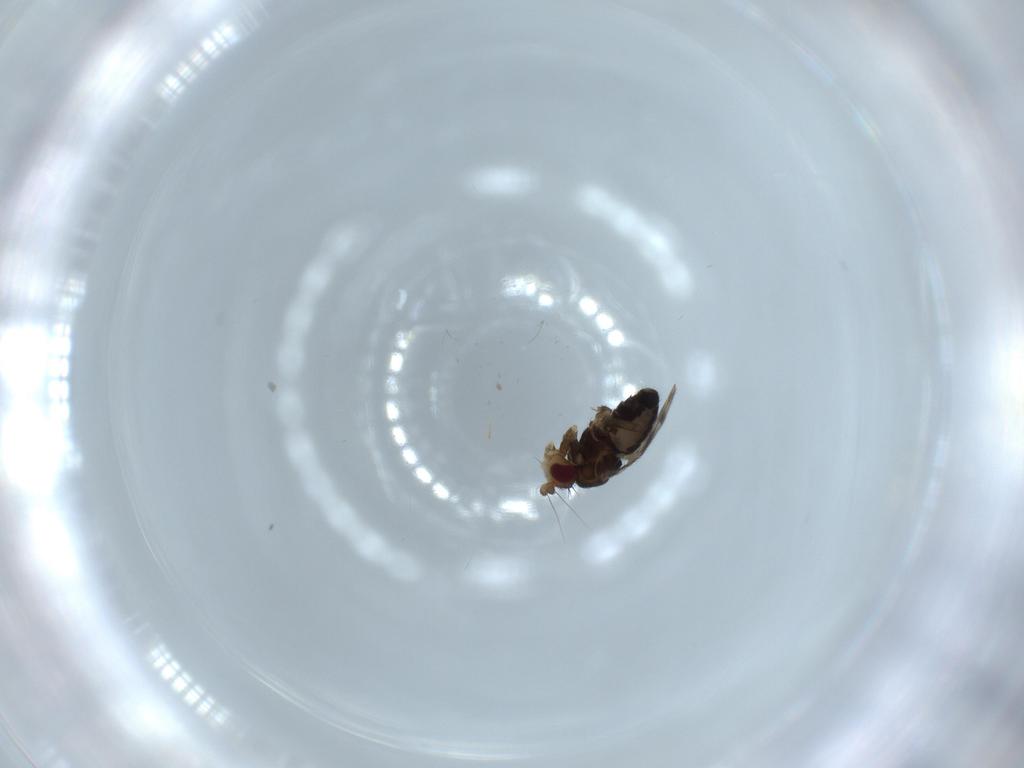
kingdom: Animalia
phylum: Arthropoda
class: Insecta
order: Diptera
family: Sphaeroceridae
